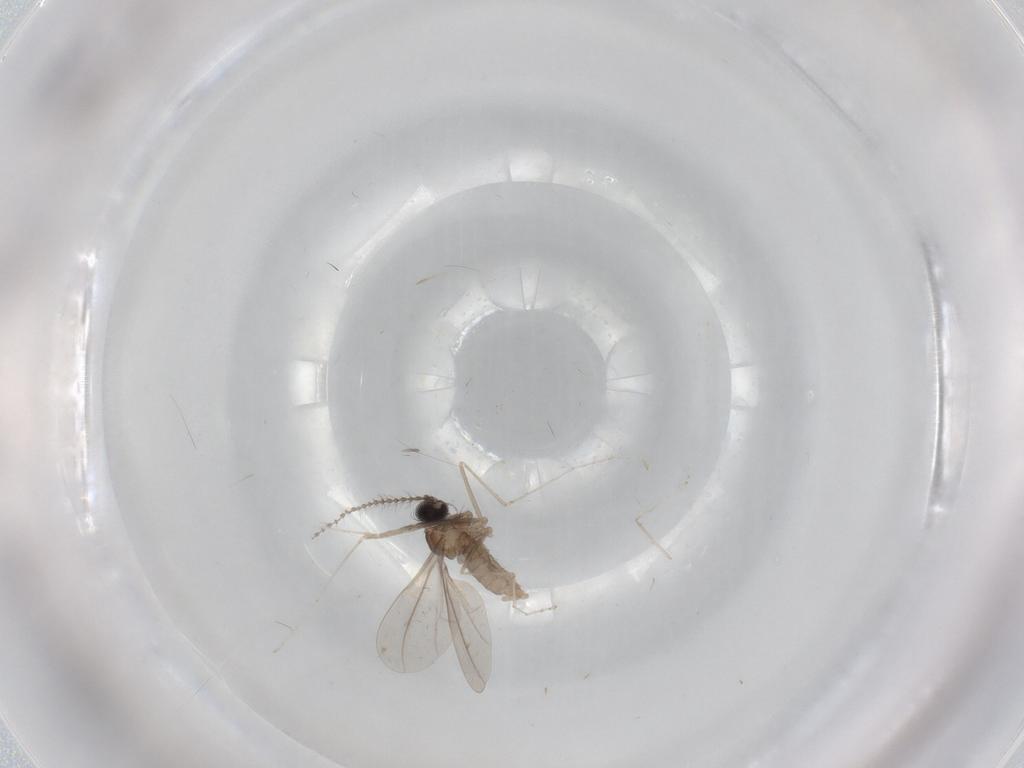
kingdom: Animalia
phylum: Arthropoda
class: Insecta
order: Diptera
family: Cecidomyiidae
